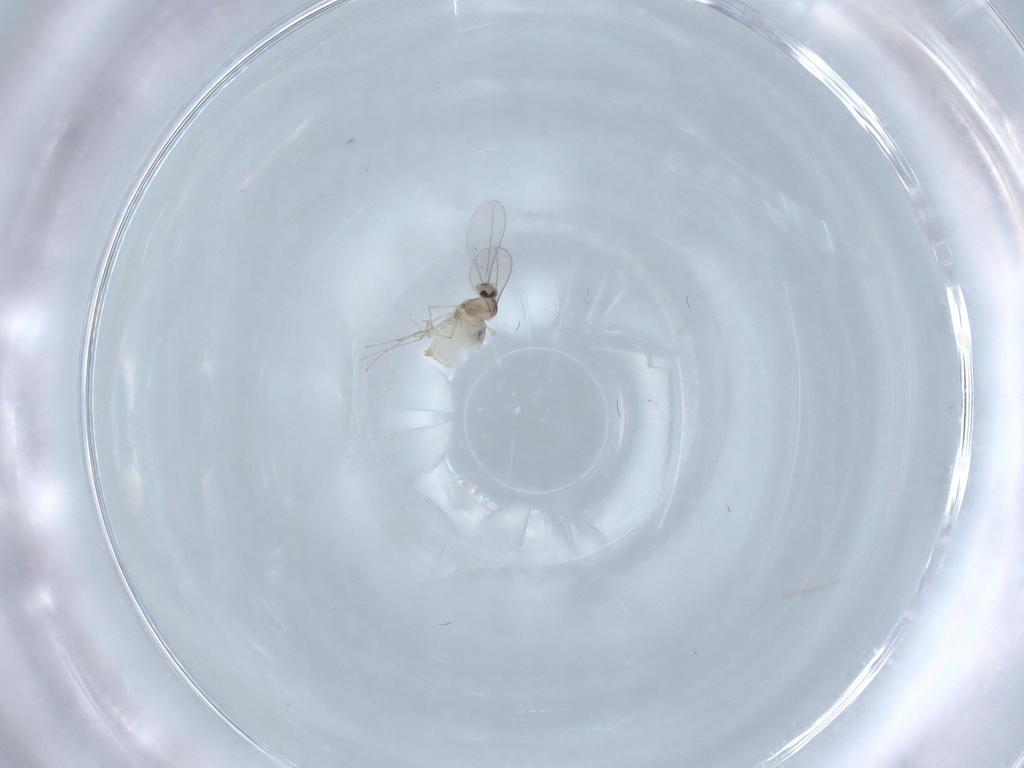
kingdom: Animalia
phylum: Arthropoda
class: Insecta
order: Diptera
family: Cecidomyiidae
